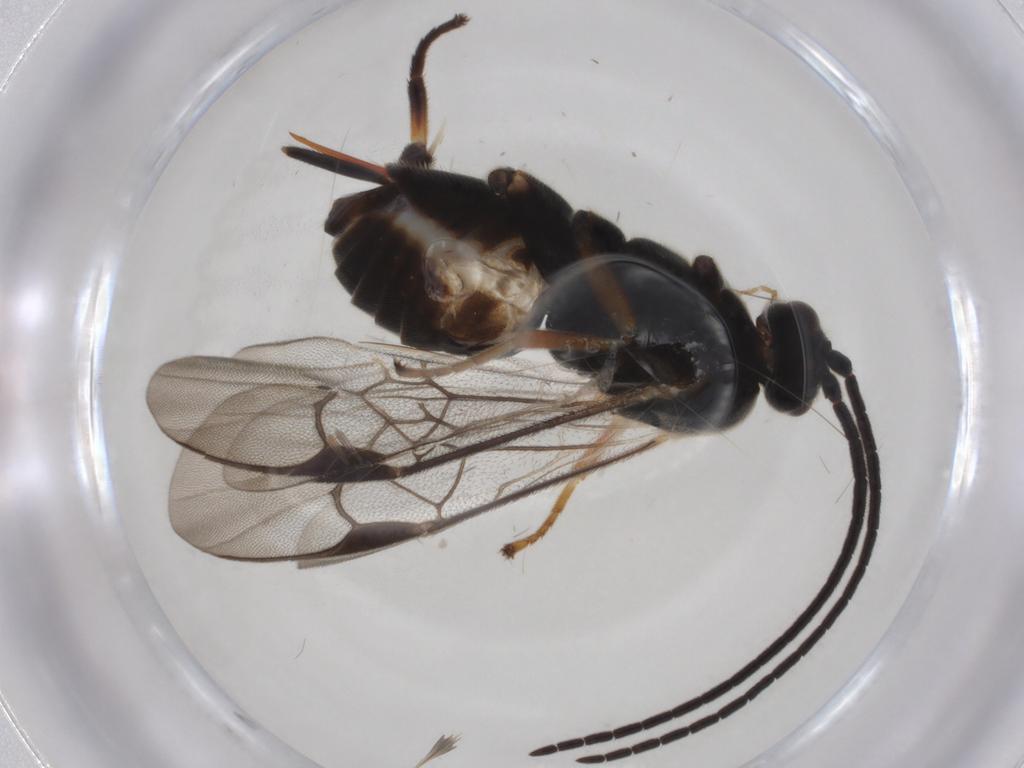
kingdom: Animalia
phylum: Arthropoda
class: Insecta
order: Hymenoptera
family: Braconidae
